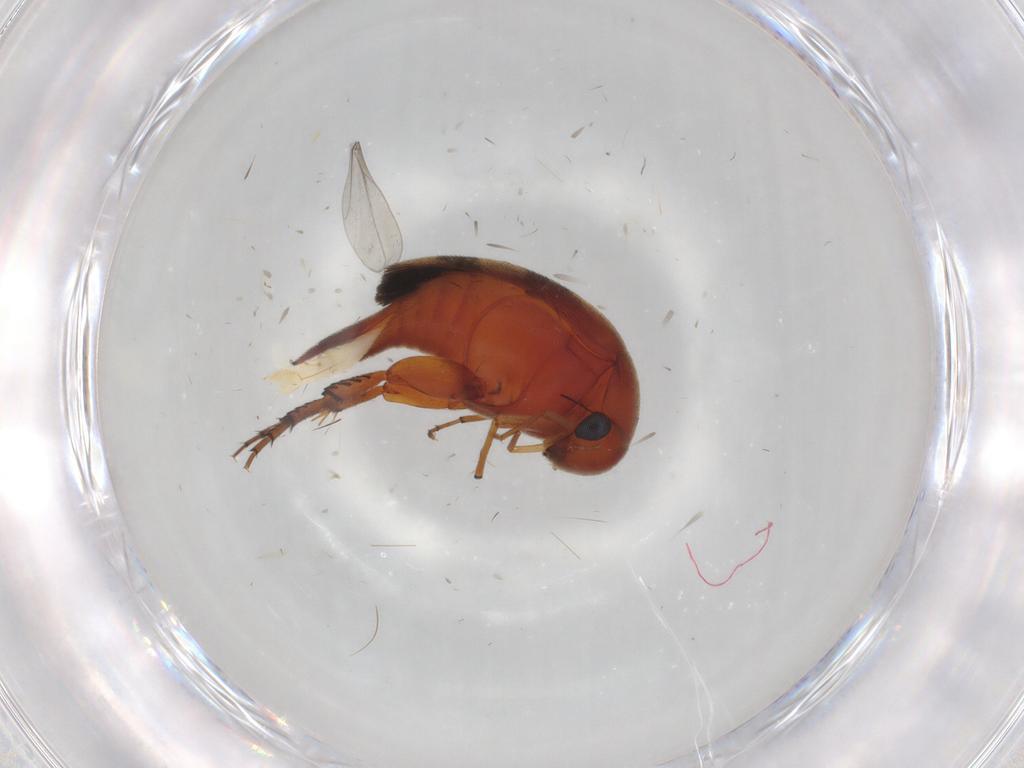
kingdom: Animalia
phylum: Arthropoda
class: Insecta
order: Coleoptera
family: Mordellidae
